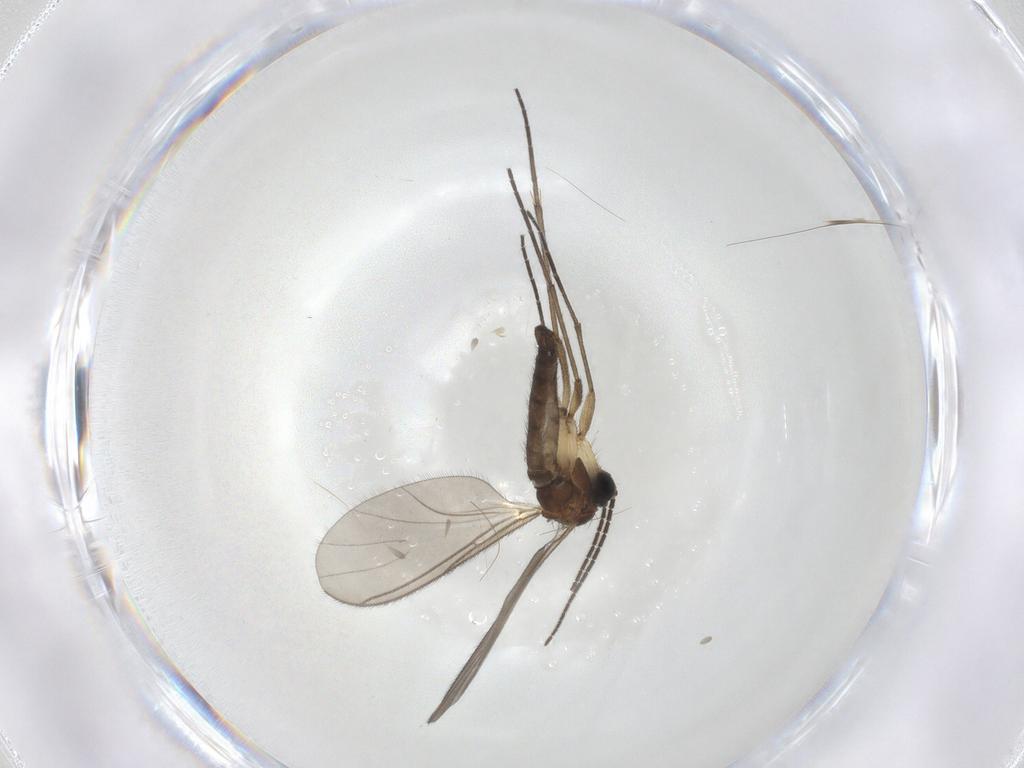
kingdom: Animalia
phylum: Arthropoda
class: Insecta
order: Diptera
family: Sciaridae
